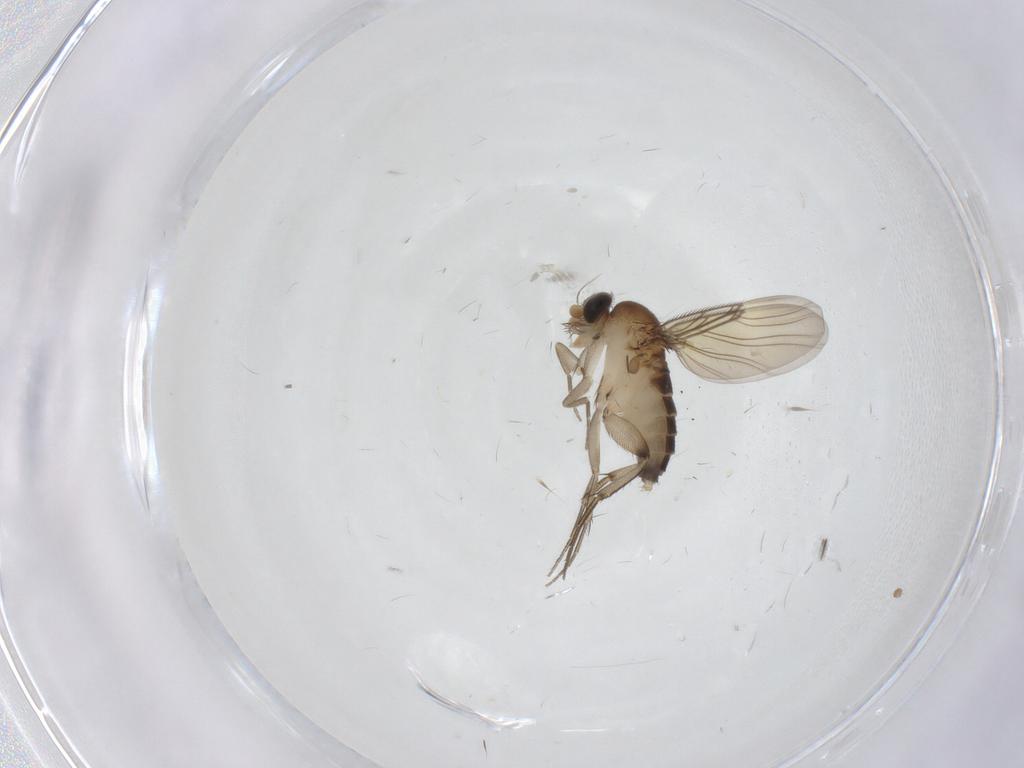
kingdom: Animalia
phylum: Arthropoda
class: Insecta
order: Diptera
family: Phoridae
